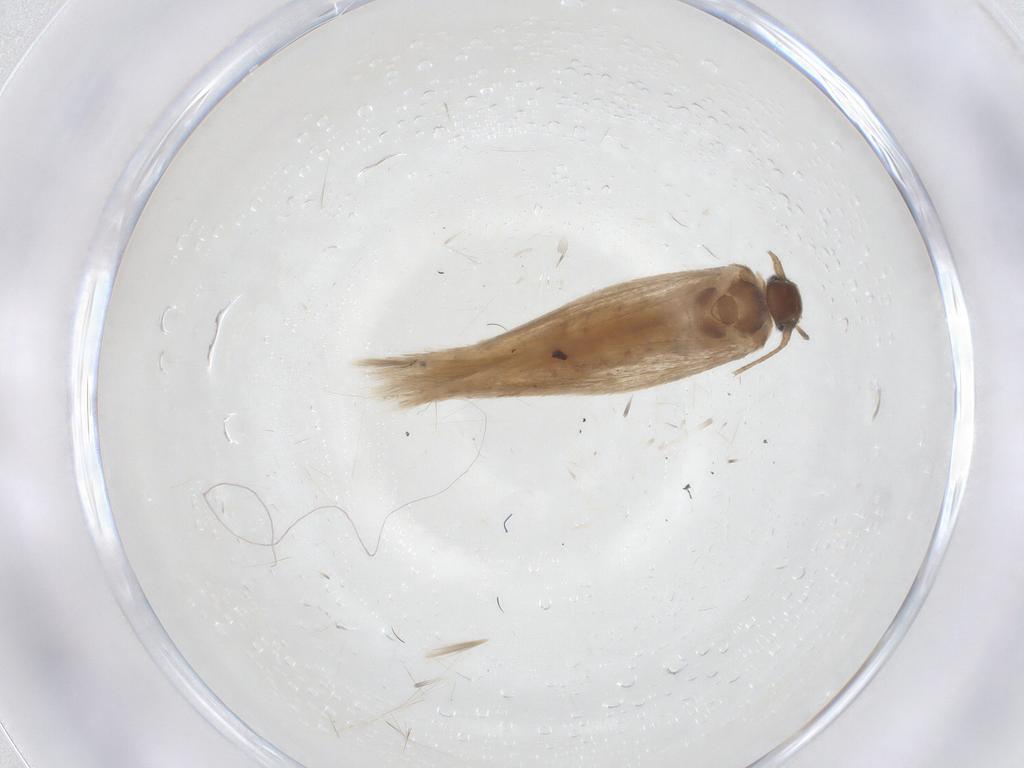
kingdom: Animalia
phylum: Arthropoda
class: Insecta
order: Lepidoptera
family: Scythrididae
